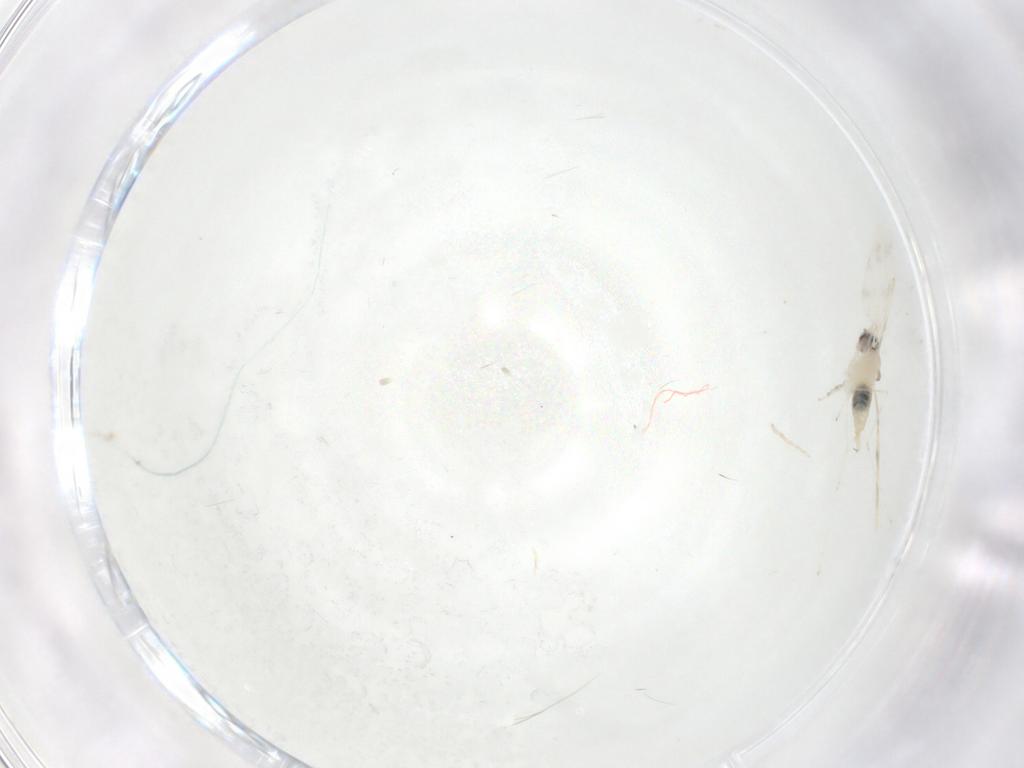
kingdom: Animalia
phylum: Arthropoda
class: Insecta
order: Diptera
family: Cecidomyiidae
